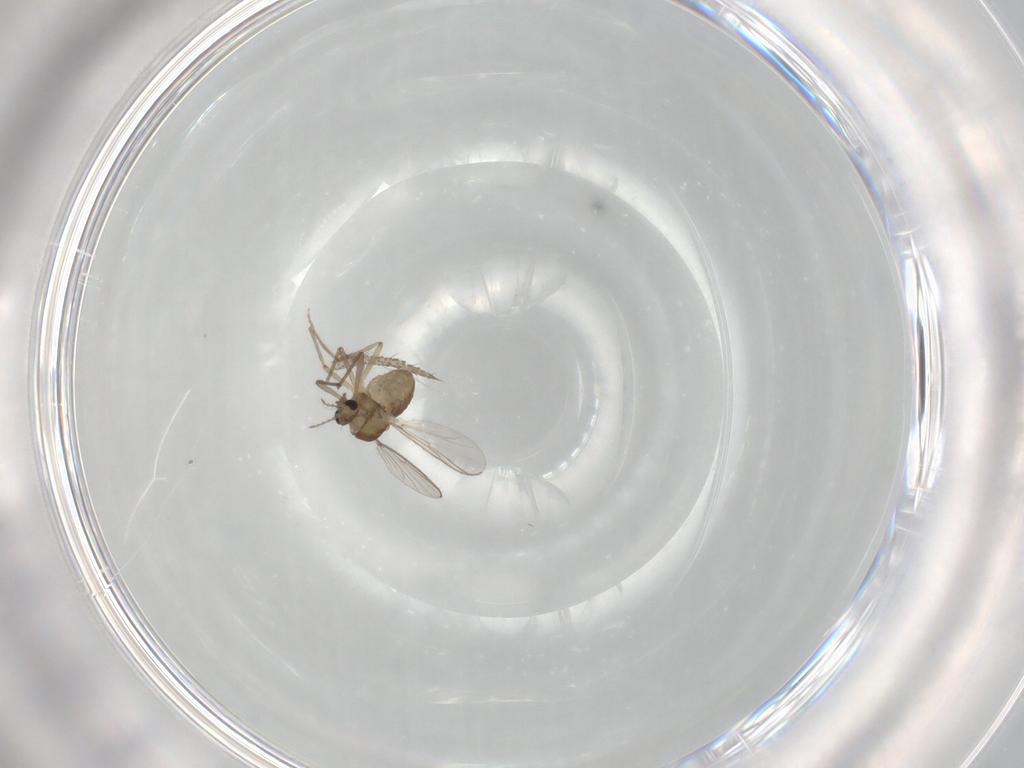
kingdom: Animalia
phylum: Arthropoda
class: Insecta
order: Diptera
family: Chironomidae
